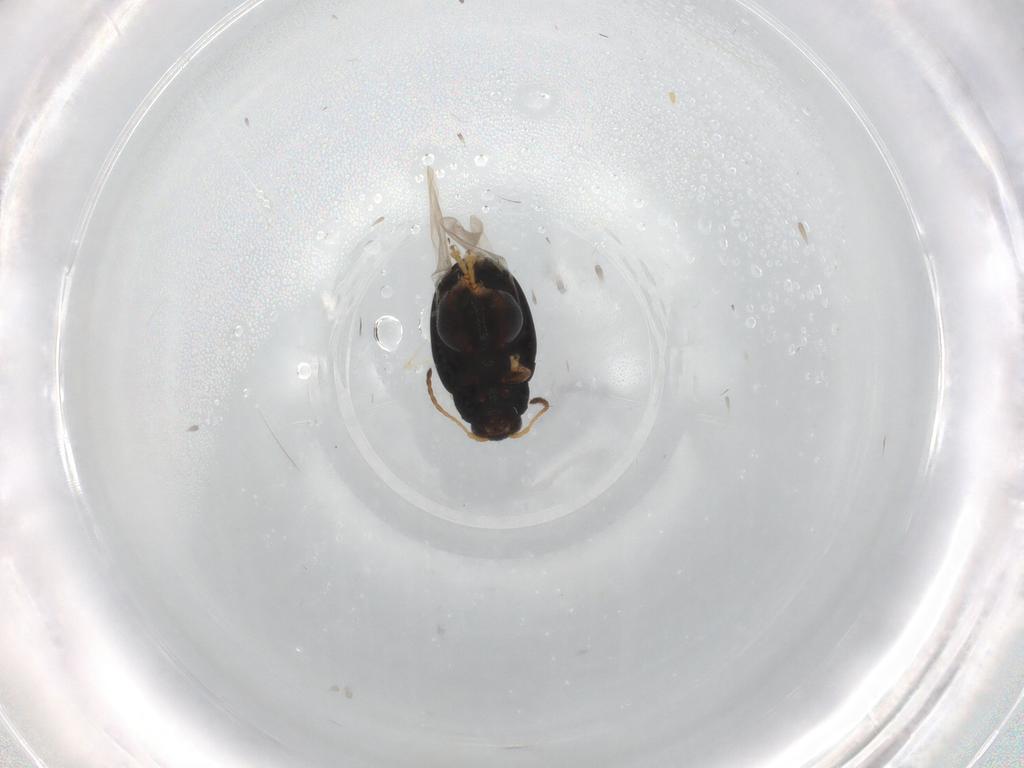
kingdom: Animalia
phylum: Arthropoda
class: Insecta
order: Coleoptera
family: Chrysomelidae
